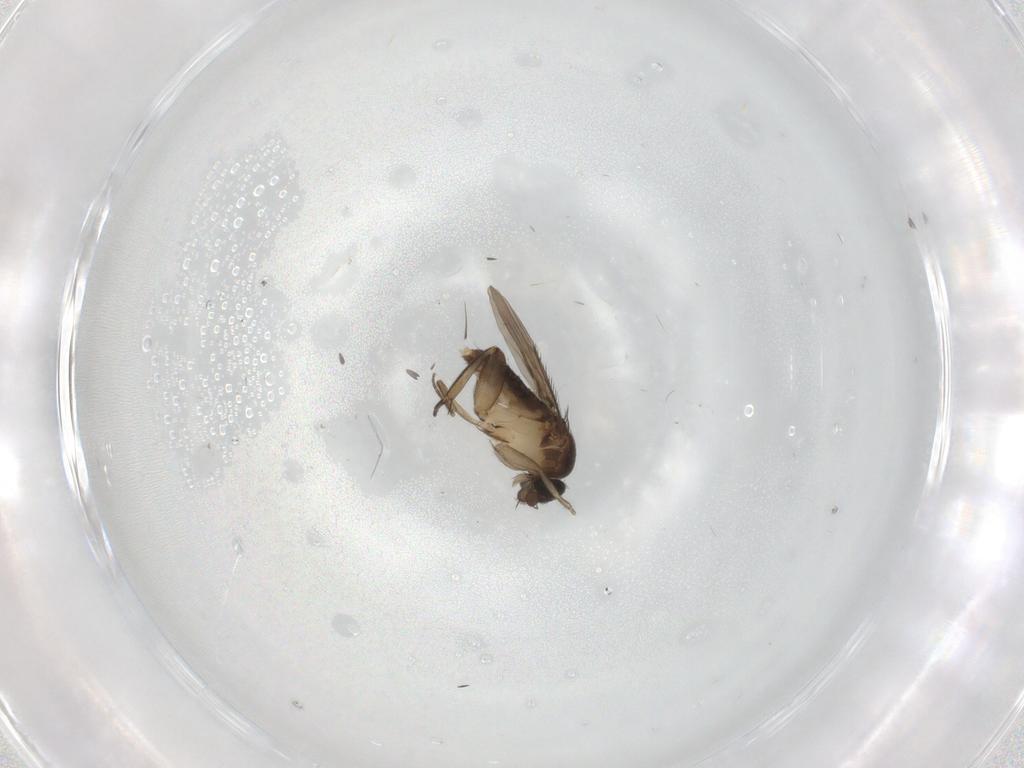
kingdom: Animalia
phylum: Arthropoda
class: Insecta
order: Diptera
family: Phoridae
